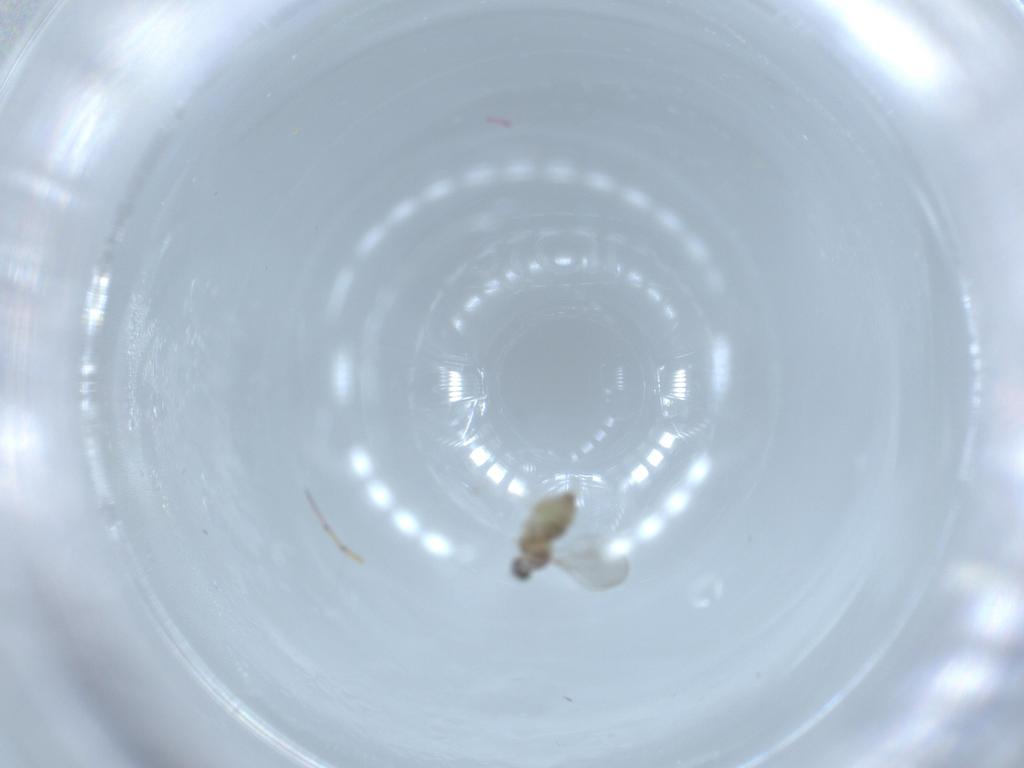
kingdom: Animalia
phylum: Arthropoda
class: Insecta
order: Diptera
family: Cecidomyiidae
